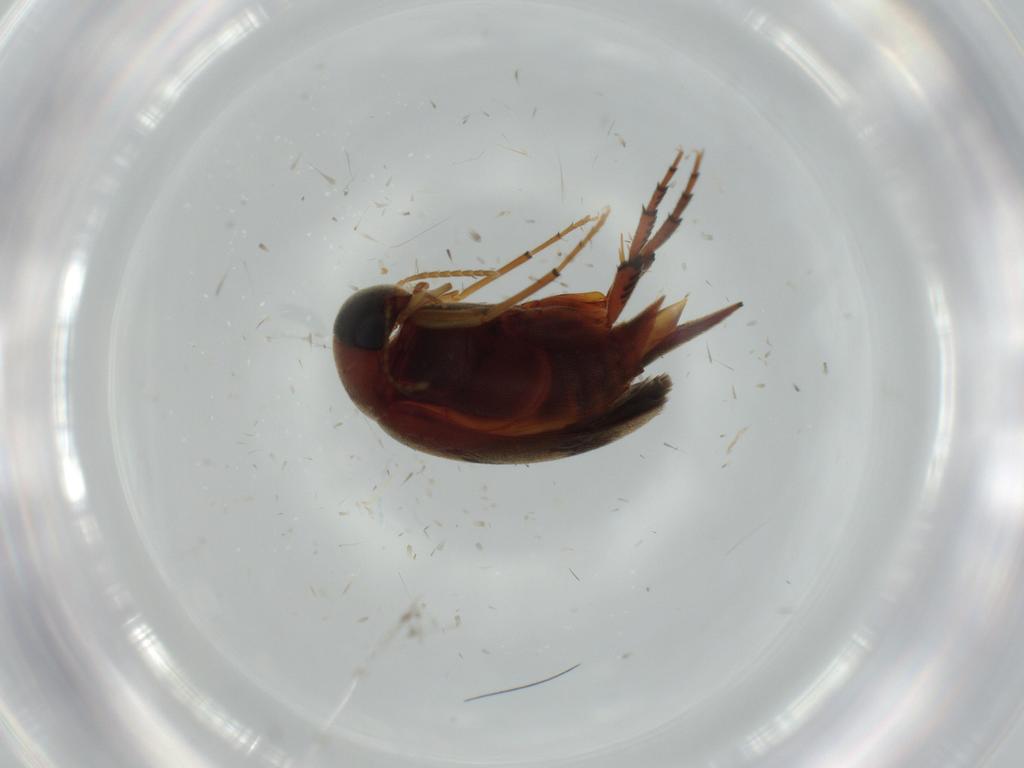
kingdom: Animalia
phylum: Arthropoda
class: Insecta
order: Coleoptera
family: Mordellidae
